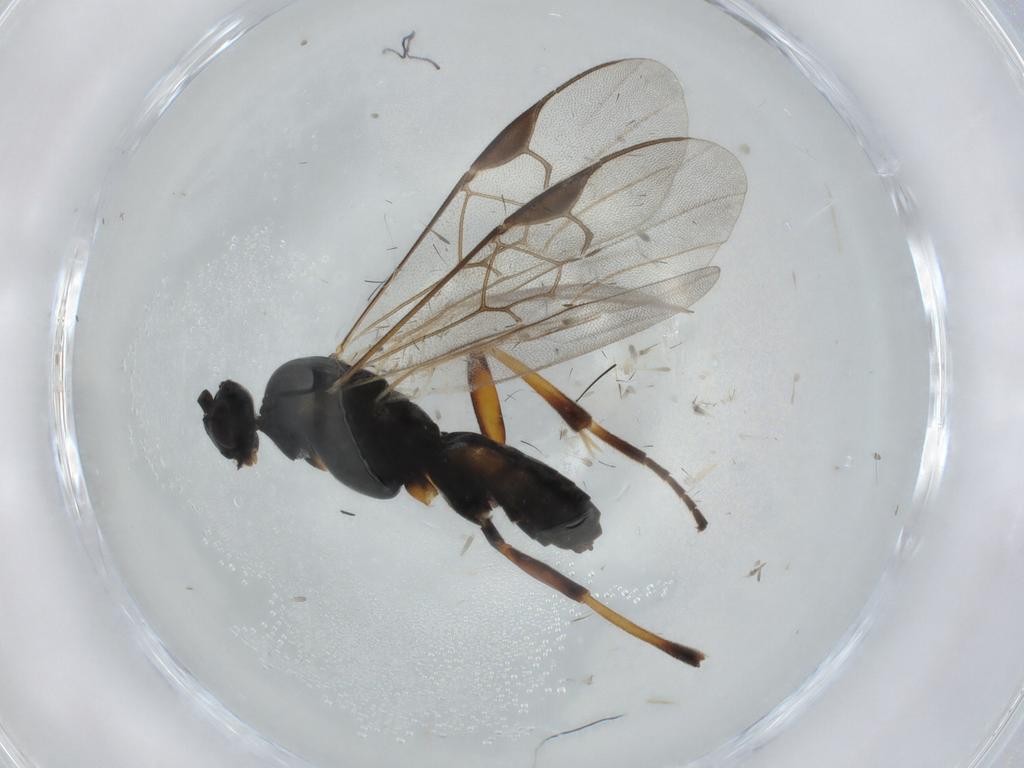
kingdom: Animalia
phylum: Arthropoda
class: Insecta
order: Hymenoptera
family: Braconidae
